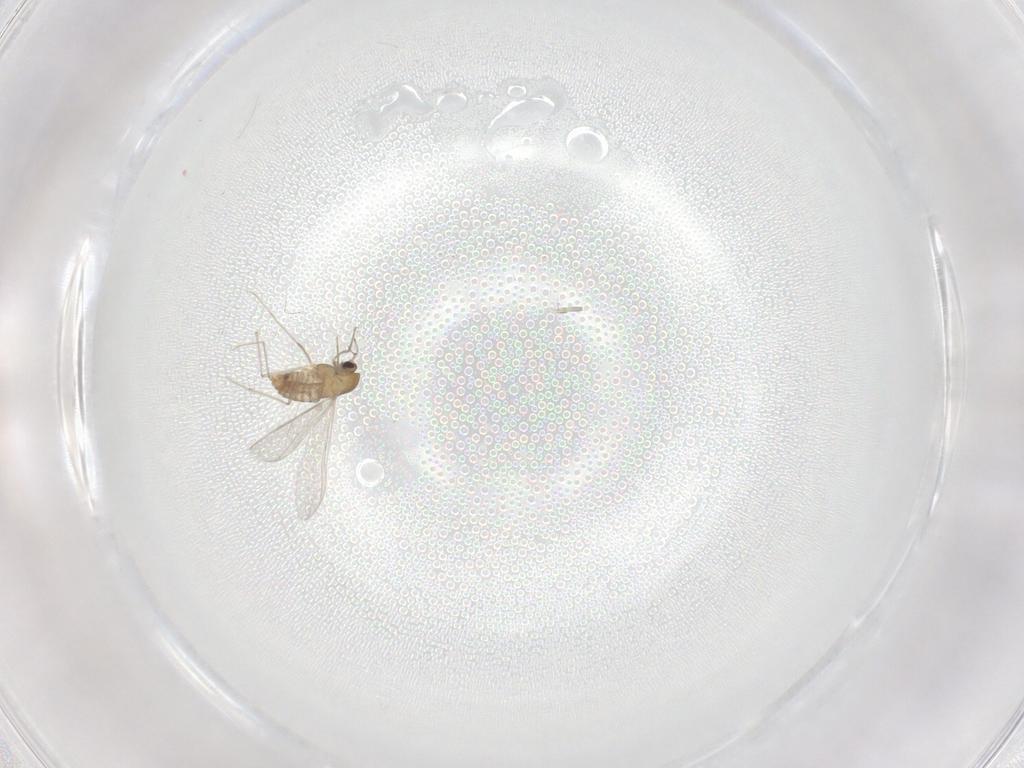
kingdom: Animalia
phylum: Arthropoda
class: Insecta
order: Diptera
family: Chironomidae
